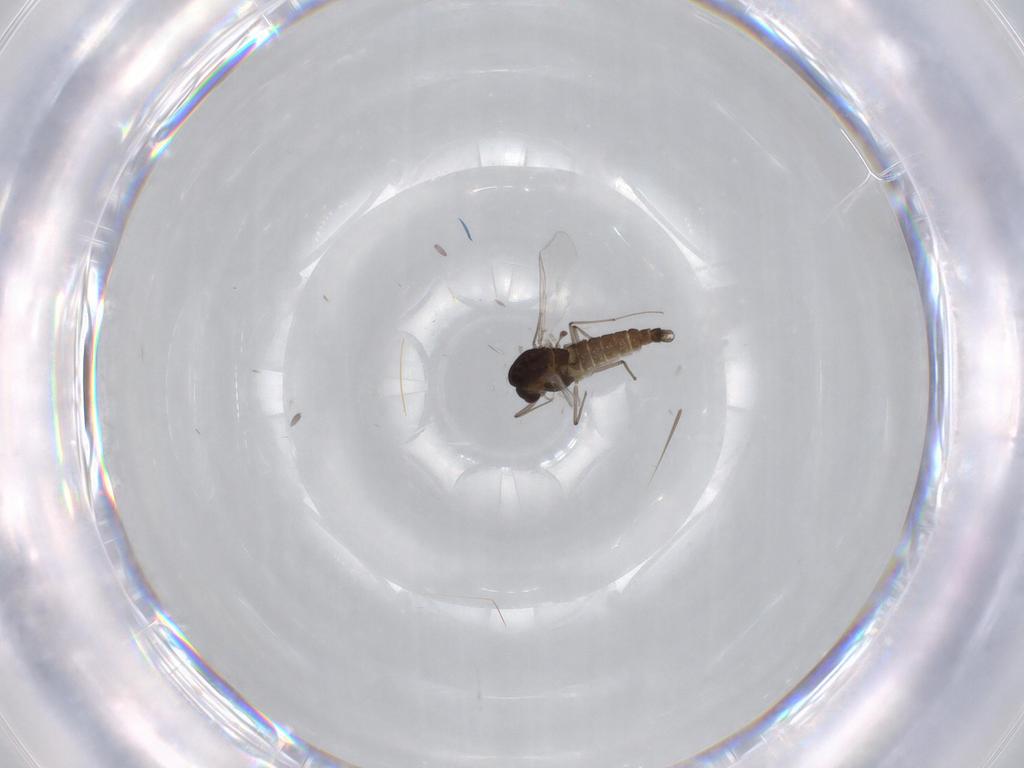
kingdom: Animalia
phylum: Arthropoda
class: Insecta
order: Diptera
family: Chironomidae
